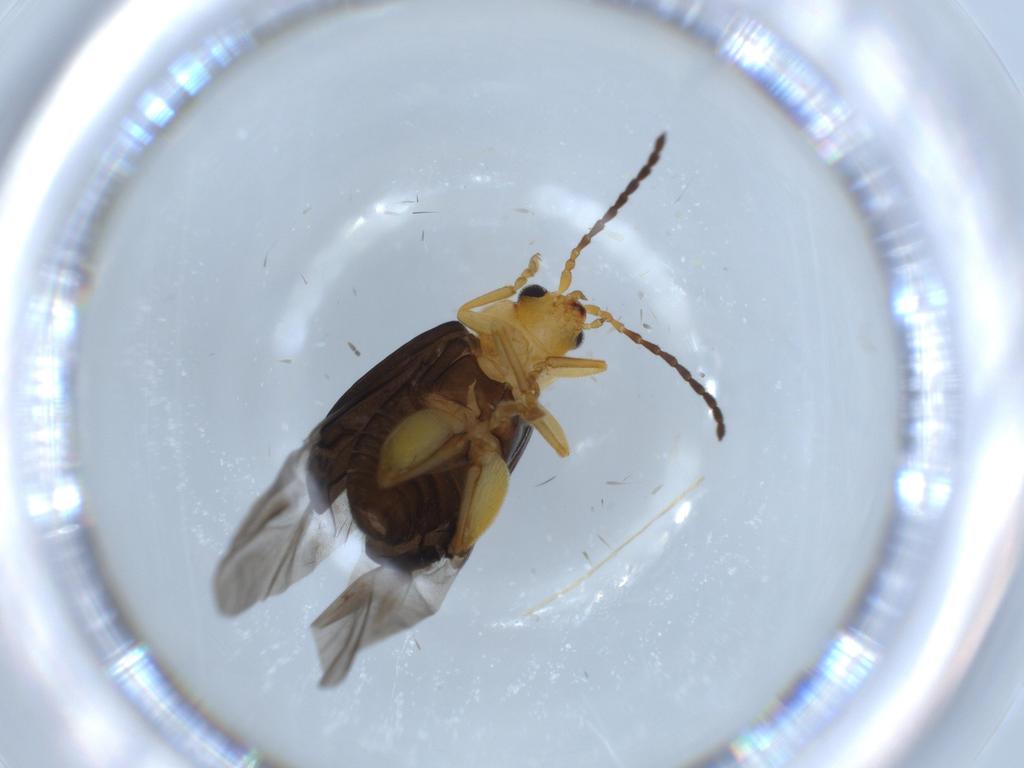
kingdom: Animalia
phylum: Arthropoda
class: Insecta
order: Coleoptera
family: Chrysomelidae
